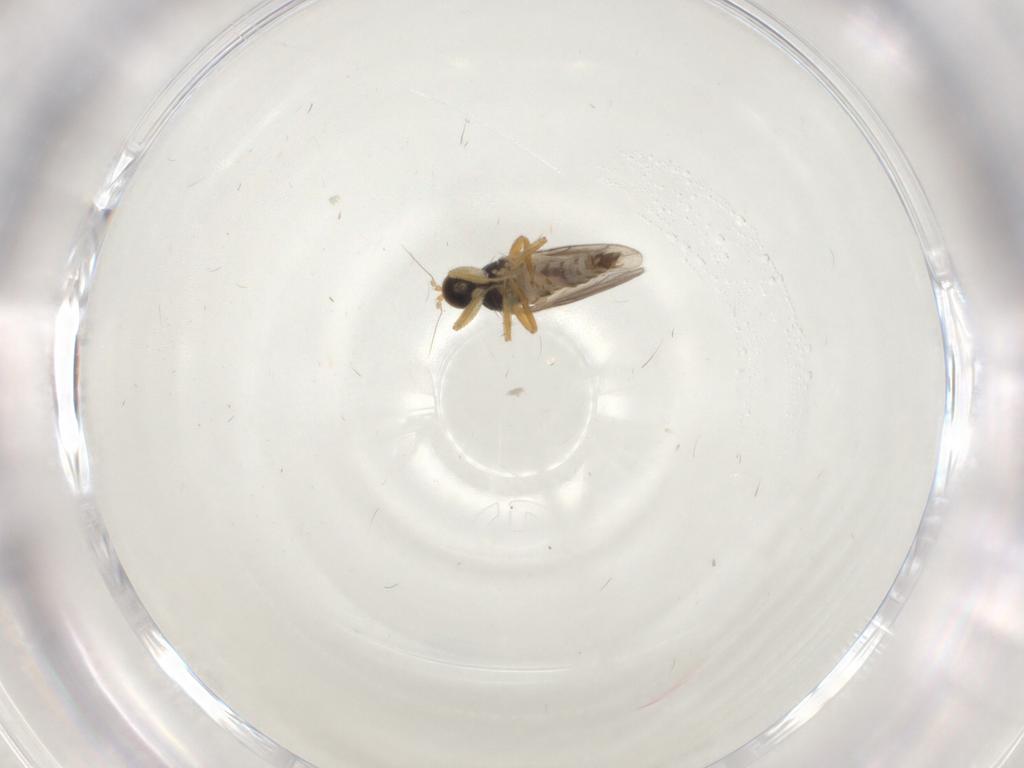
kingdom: Animalia
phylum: Arthropoda
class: Insecta
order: Diptera
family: Hybotidae
